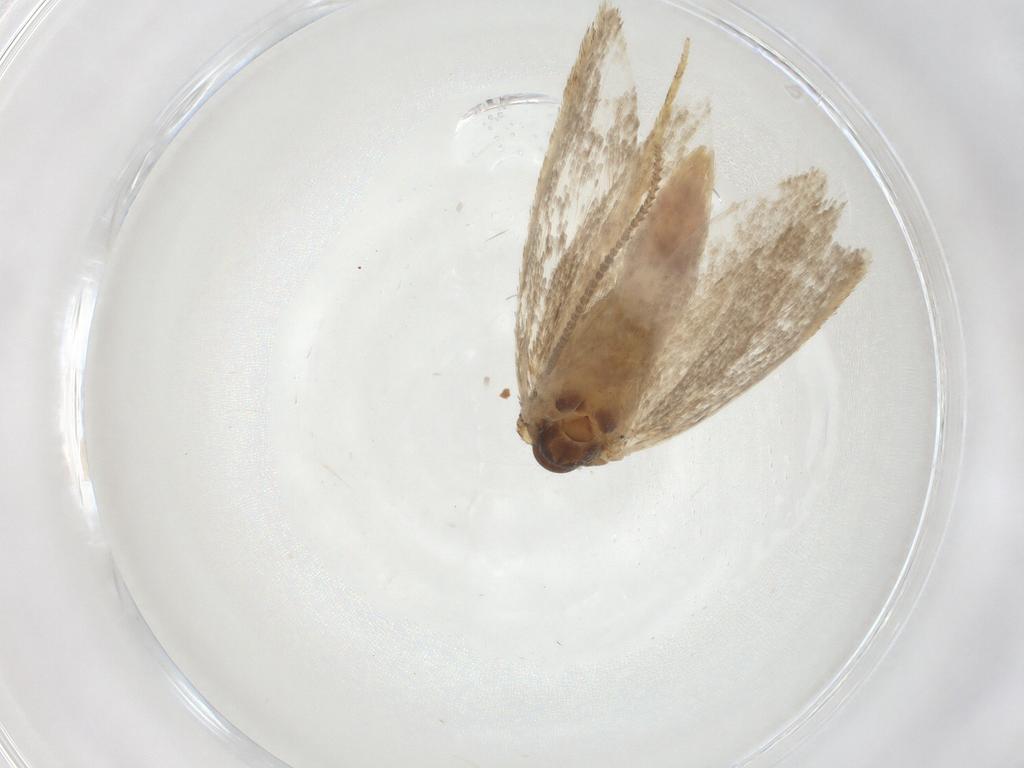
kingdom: Animalia
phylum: Arthropoda
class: Insecta
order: Lepidoptera
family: Autostichidae
